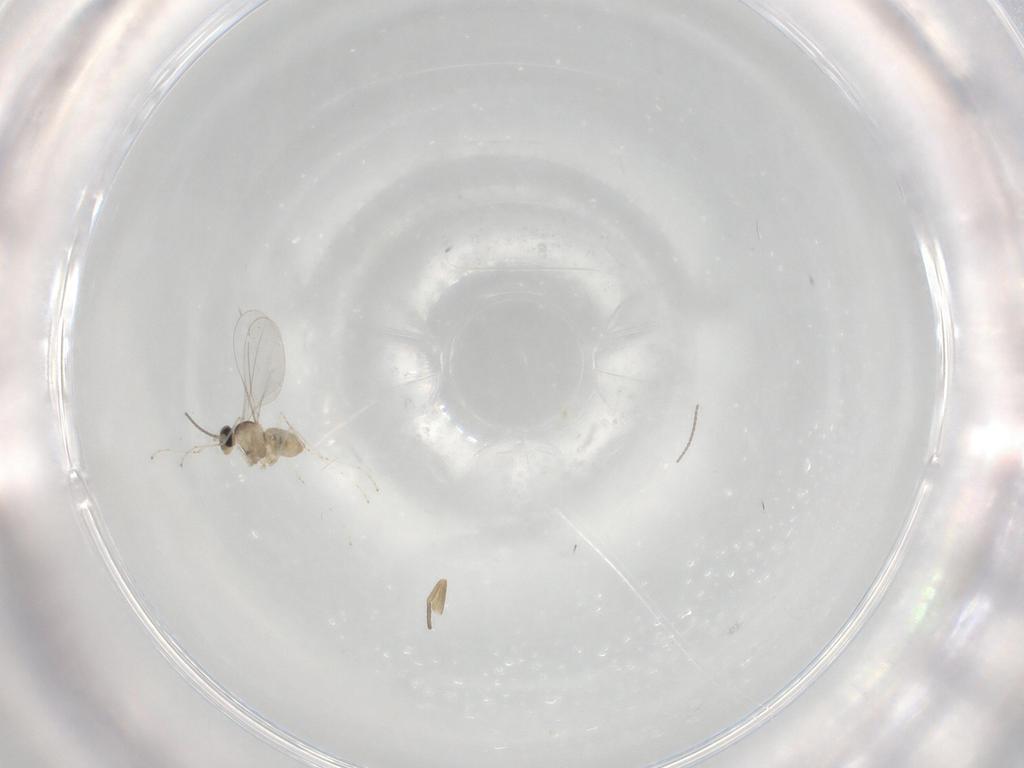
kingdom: Animalia
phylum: Arthropoda
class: Insecta
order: Diptera
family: Cecidomyiidae
